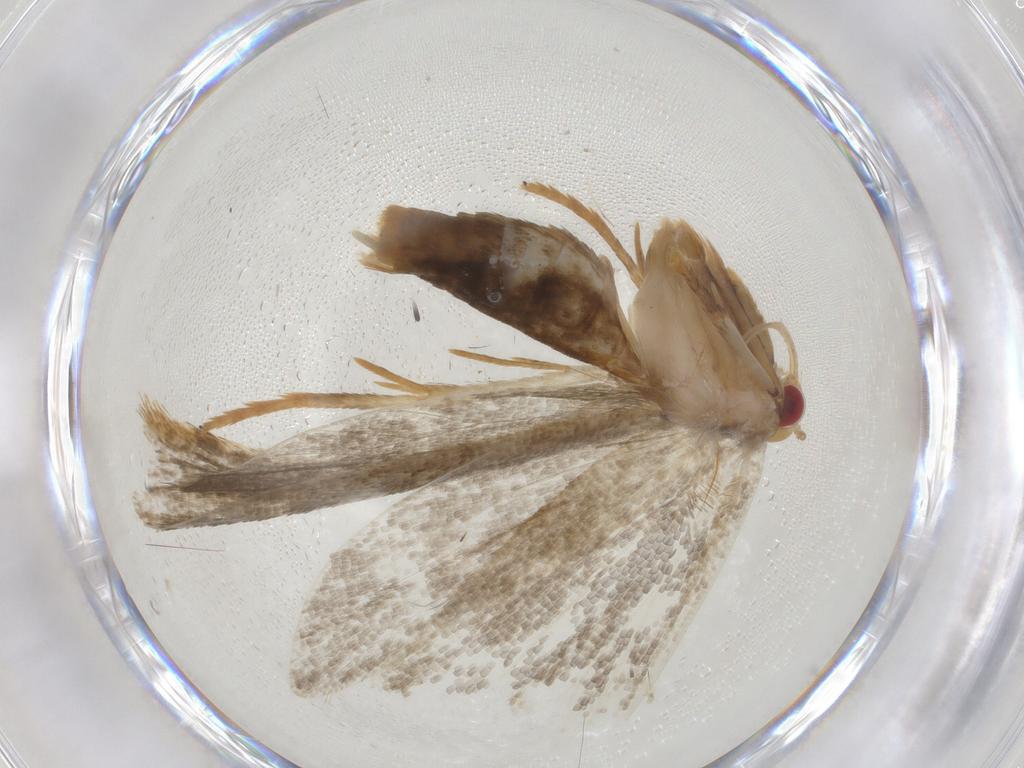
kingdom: Animalia
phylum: Arthropoda
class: Insecta
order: Lepidoptera
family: Oecophoridae
